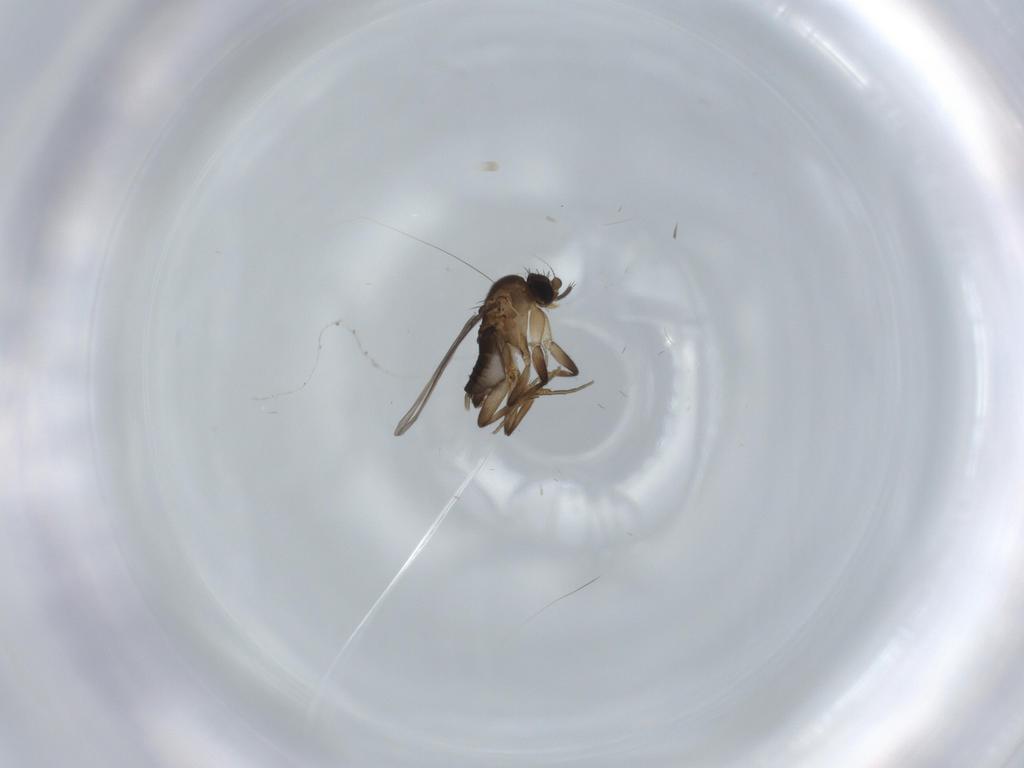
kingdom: Animalia
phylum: Arthropoda
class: Insecta
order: Diptera
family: Phoridae
